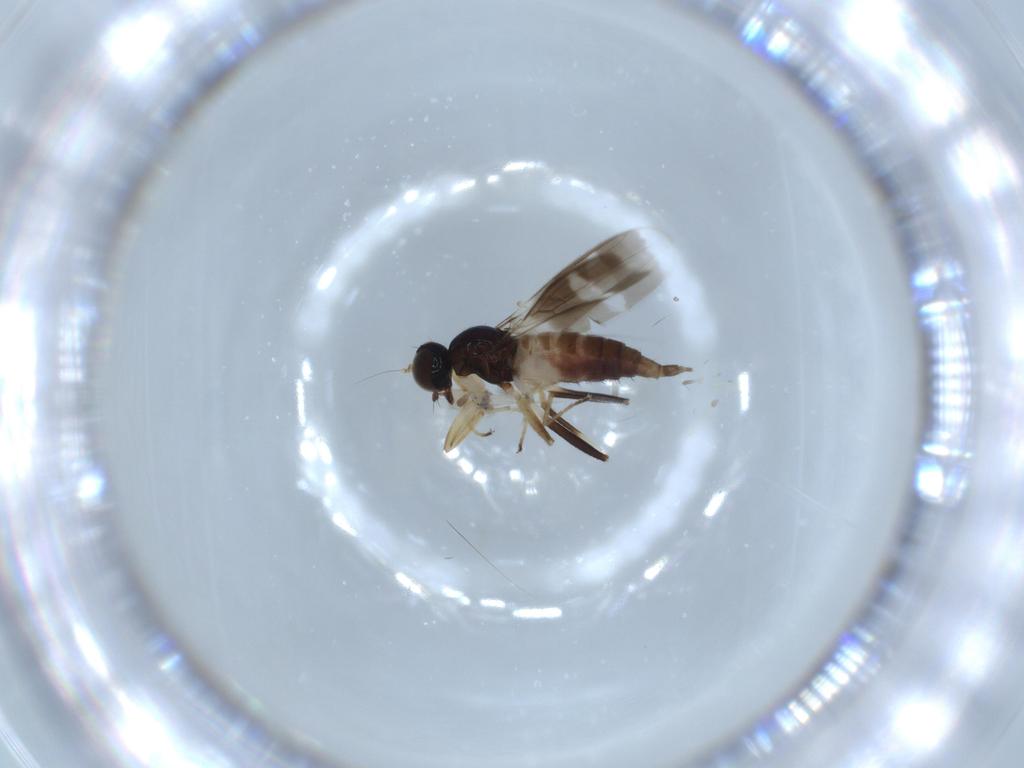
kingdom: Animalia
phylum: Arthropoda
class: Insecta
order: Diptera
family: Hybotidae
